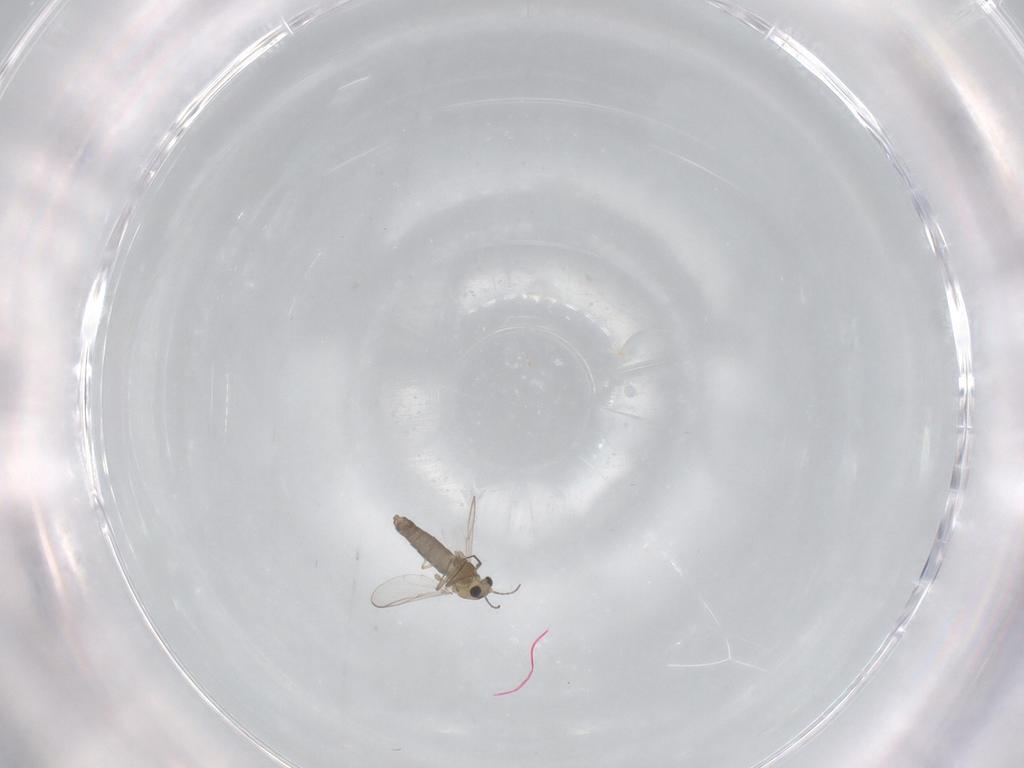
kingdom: Animalia
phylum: Arthropoda
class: Insecta
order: Diptera
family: Chironomidae
